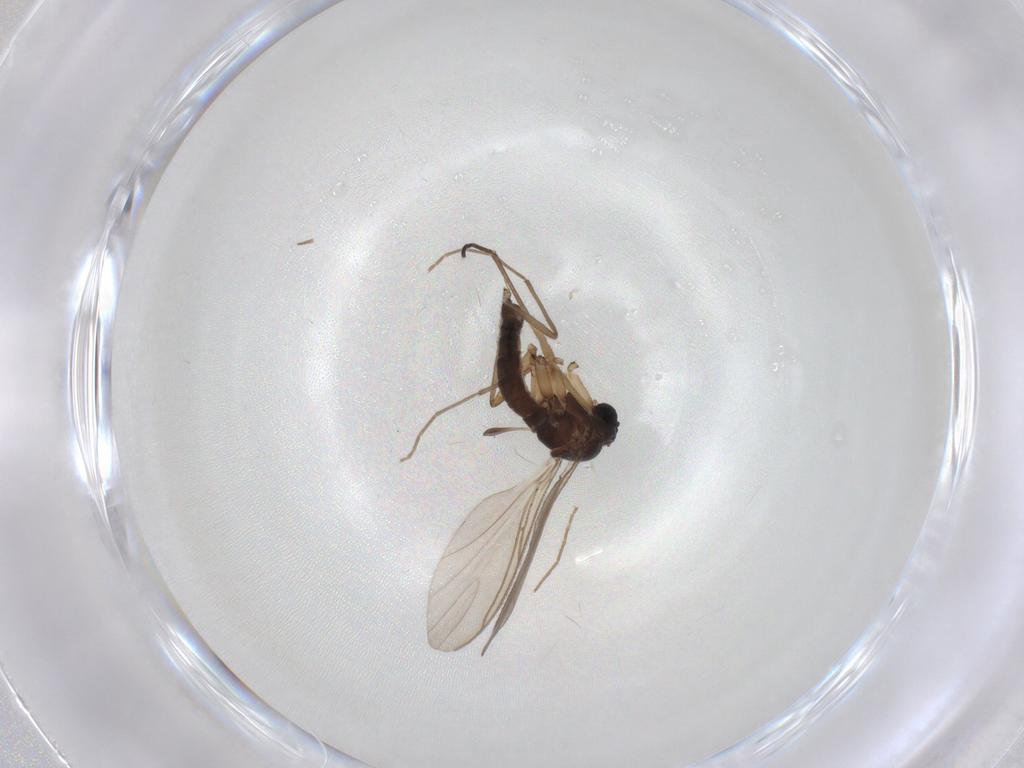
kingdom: Animalia
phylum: Arthropoda
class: Insecta
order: Diptera
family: Sciaridae
